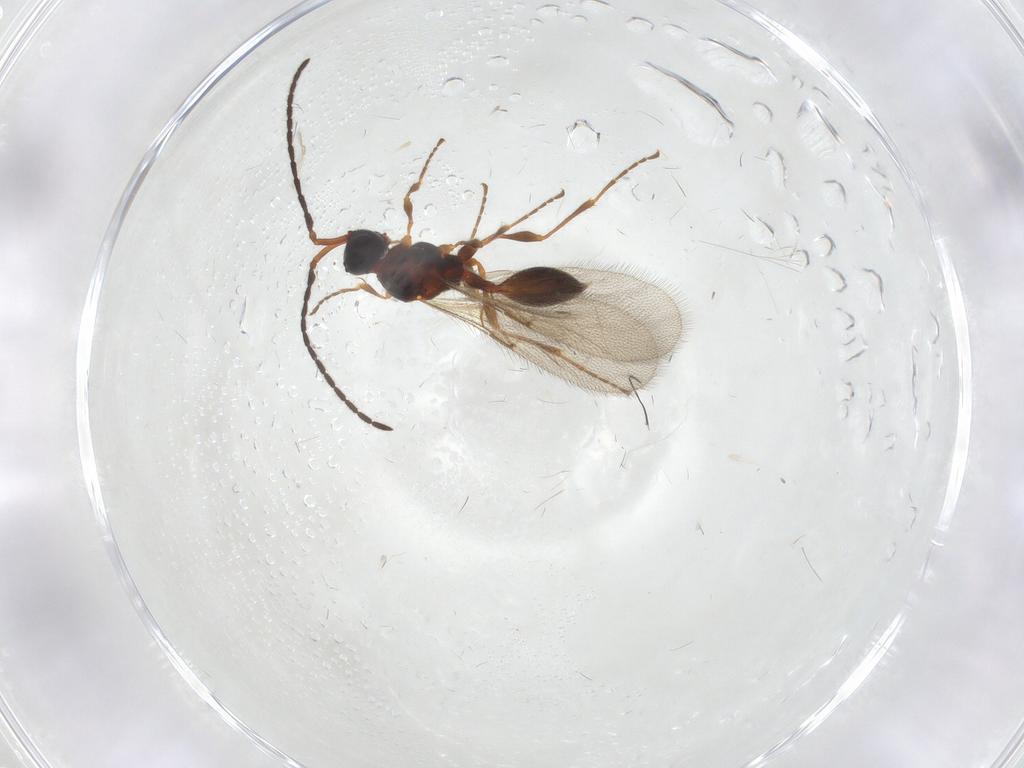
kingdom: Animalia
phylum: Arthropoda
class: Insecta
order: Hymenoptera
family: Diapriidae
